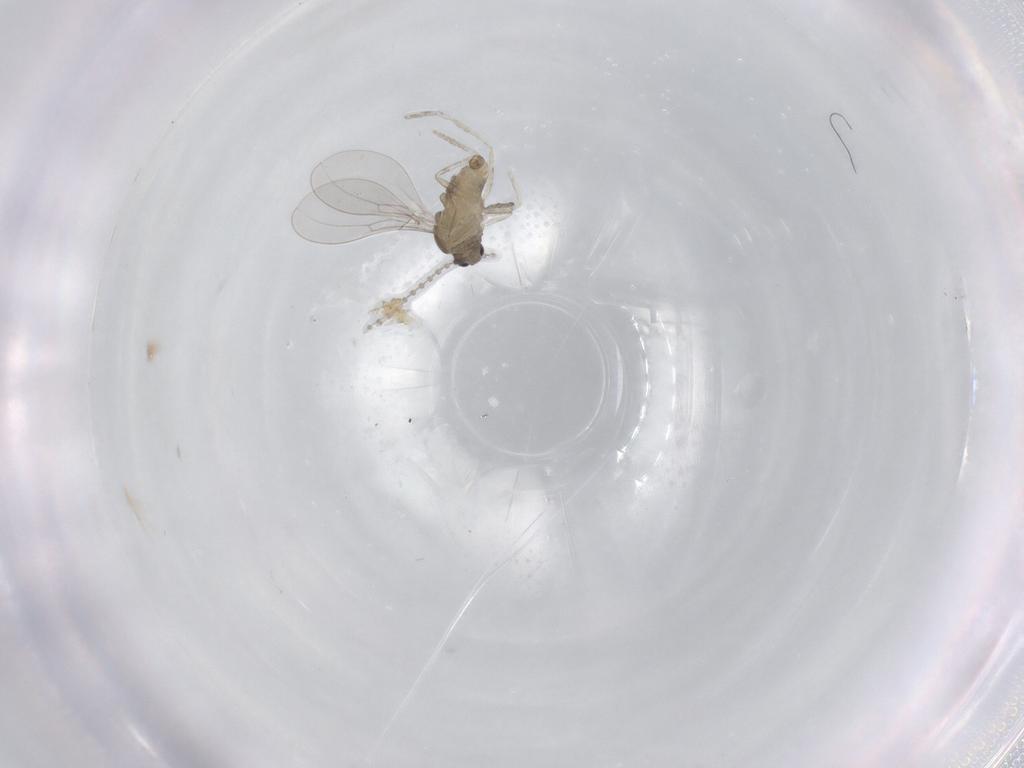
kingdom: Animalia
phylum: Arthropoda
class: Insecta
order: Diptera
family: Cecidomyiidae
